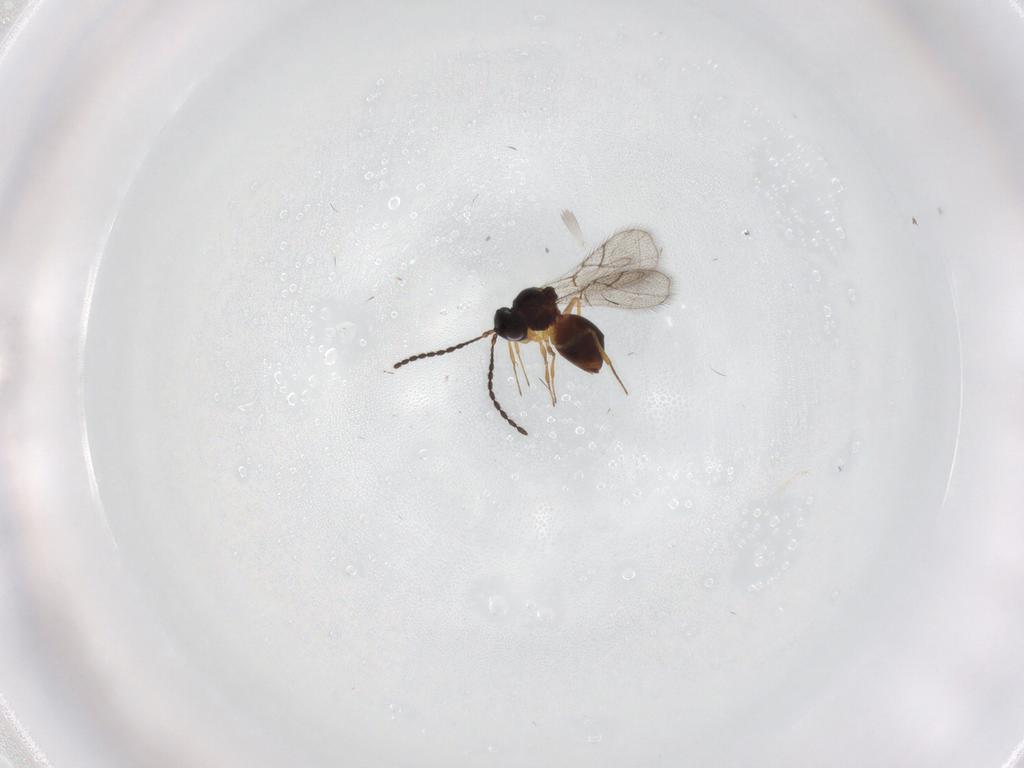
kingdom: Animalia
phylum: Arthropoda
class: Insecta
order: Hymenoptera
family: Figitidae
